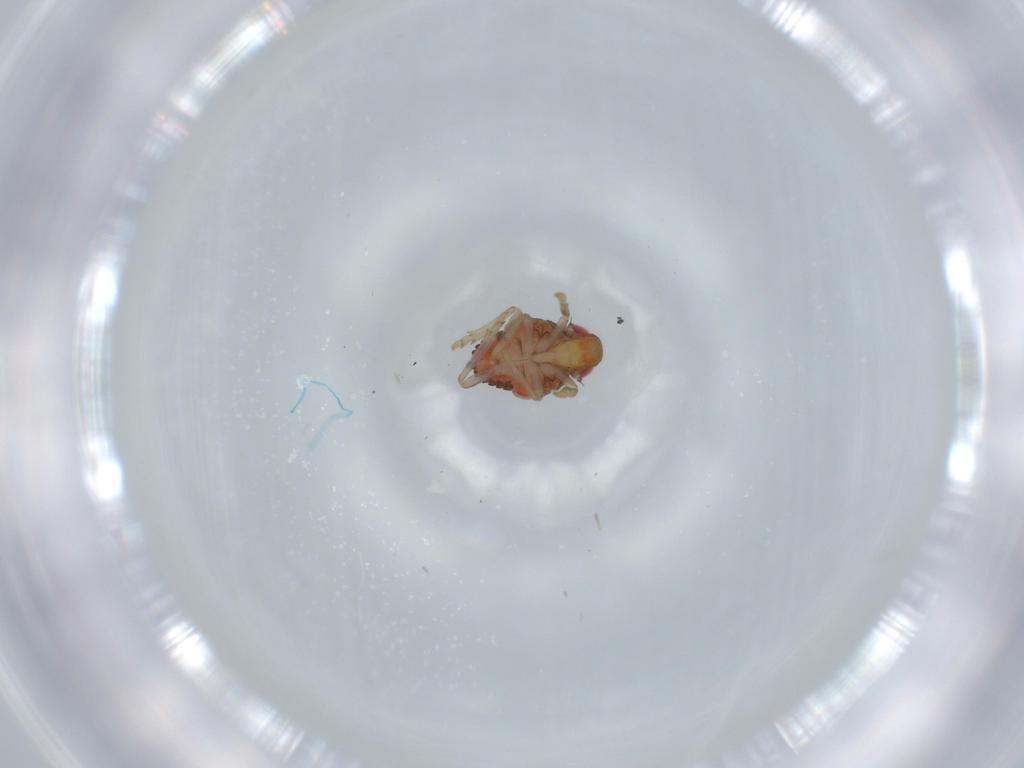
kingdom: Animalia
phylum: Arthropoda
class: Insecta
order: Hemiptera
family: Issidae
